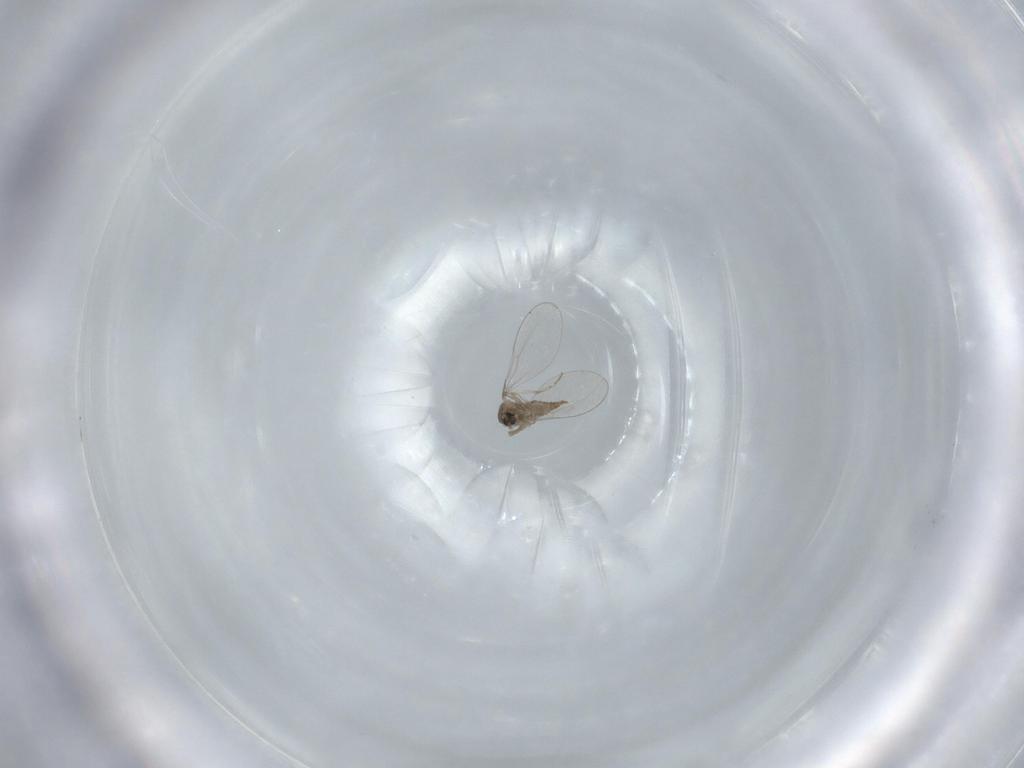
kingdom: Animalia
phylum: Arthropoda
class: Insecta
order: Diptera
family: Cecidomyiidae
